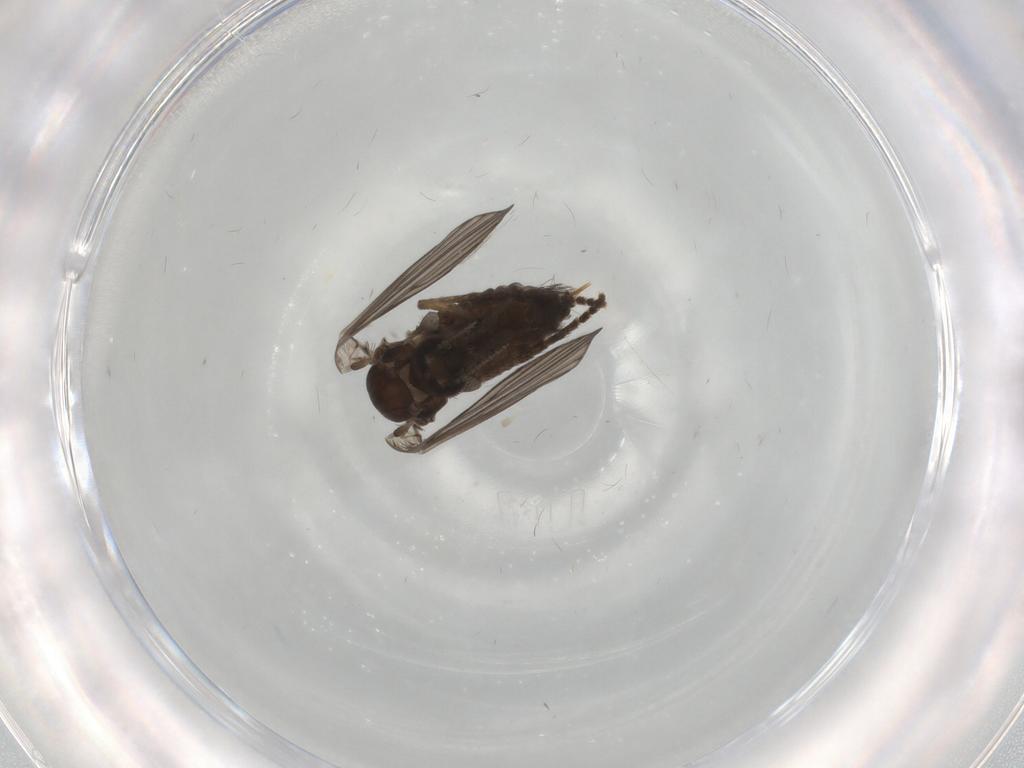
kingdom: Animalia
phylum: Arthropoda
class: Insecta
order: Diptera
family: Psychodidae
